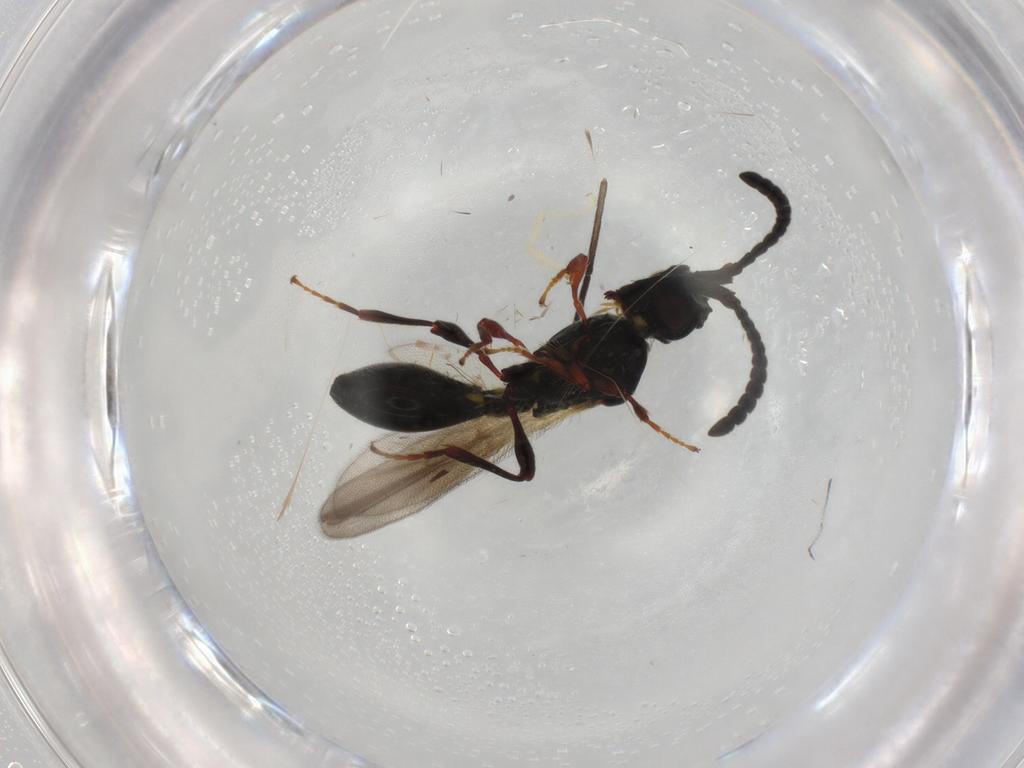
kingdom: Animalia
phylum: Arthropoda
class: Insecta
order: Hymenoptera
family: Diapriidae
